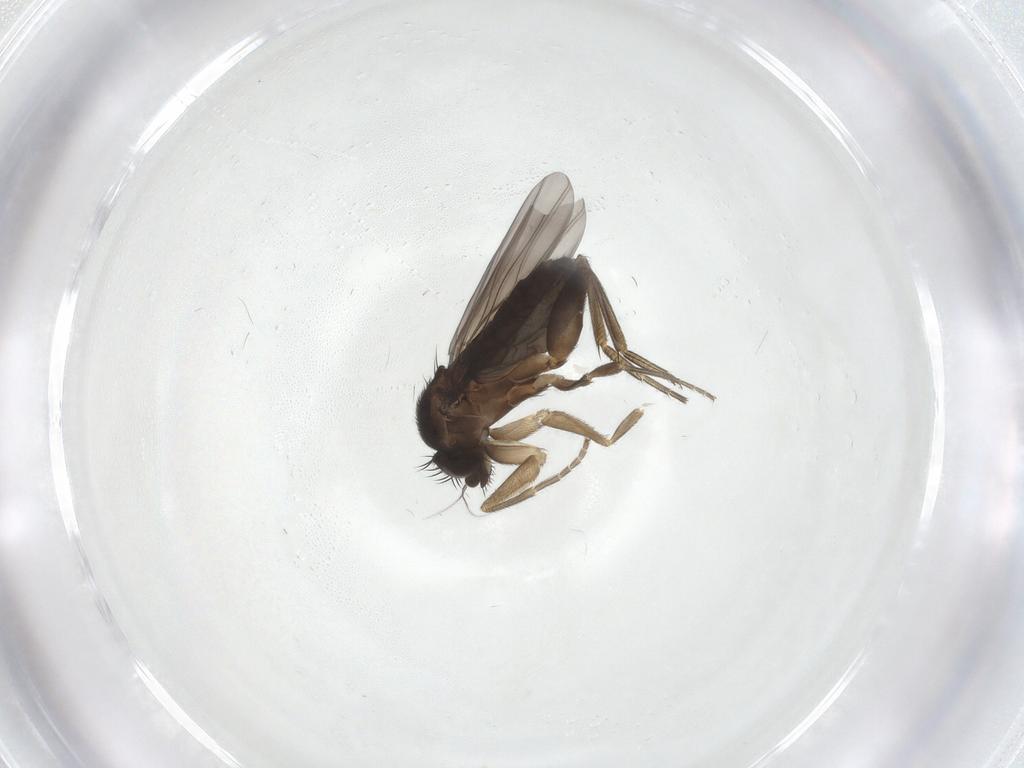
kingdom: Animalia
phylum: Arthropoda
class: Insecta
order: Diptera
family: Phoridae
